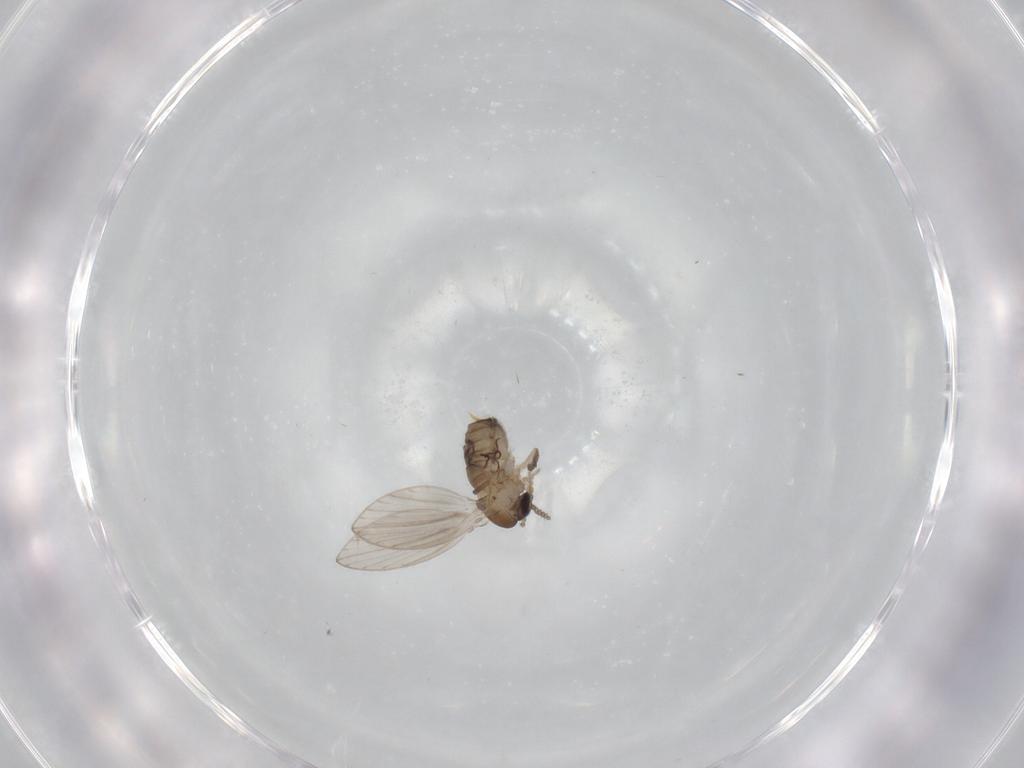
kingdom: Animalia
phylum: Arthropoda
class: Insecta
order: Diptera
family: Psychodidae
